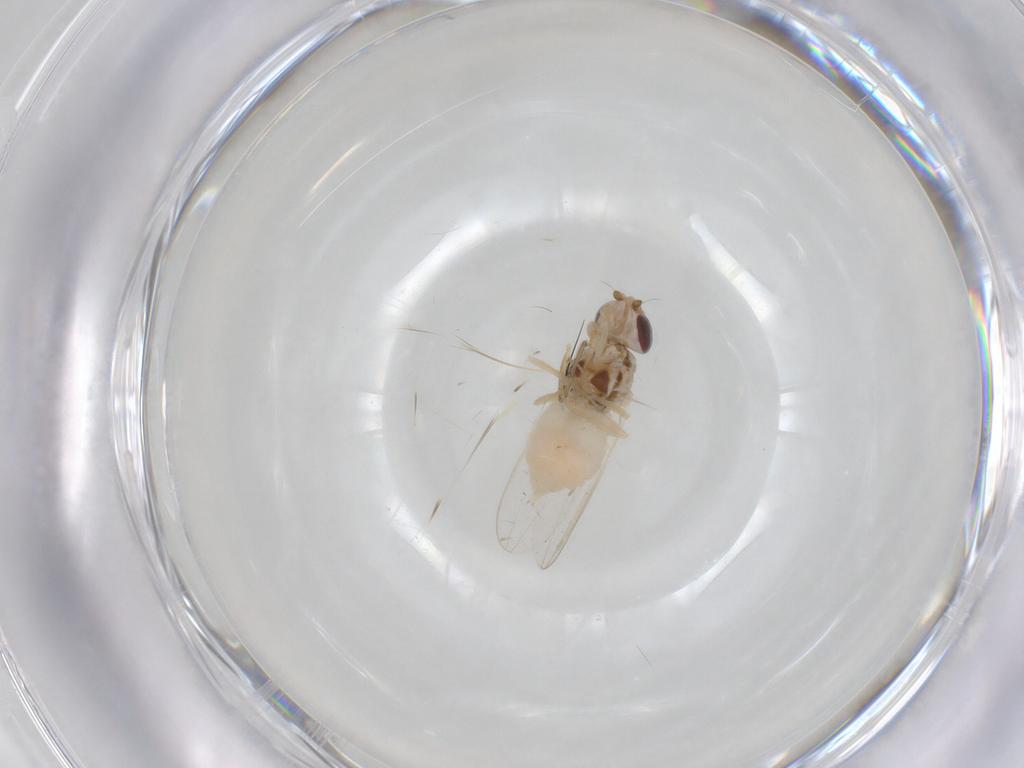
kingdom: Animalia
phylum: Arthropoda
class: Insecta
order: Diptera
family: Chloropidae
